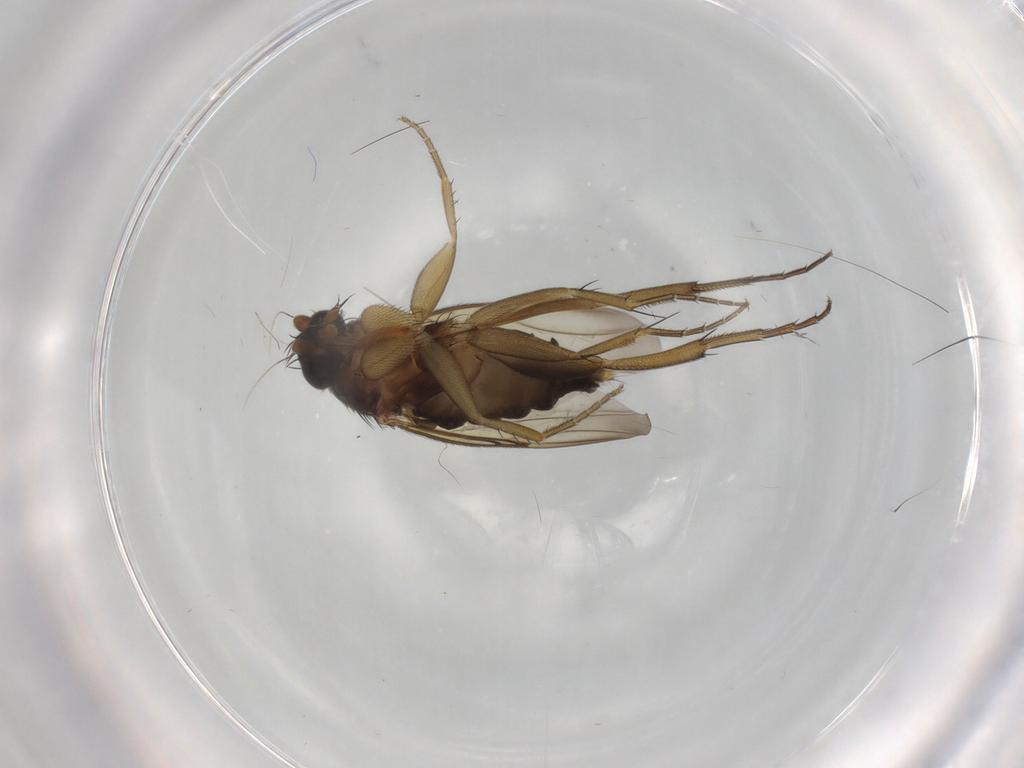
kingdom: Animalia
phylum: Arthropoda
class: Insecta
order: Diptera
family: Phoridae
